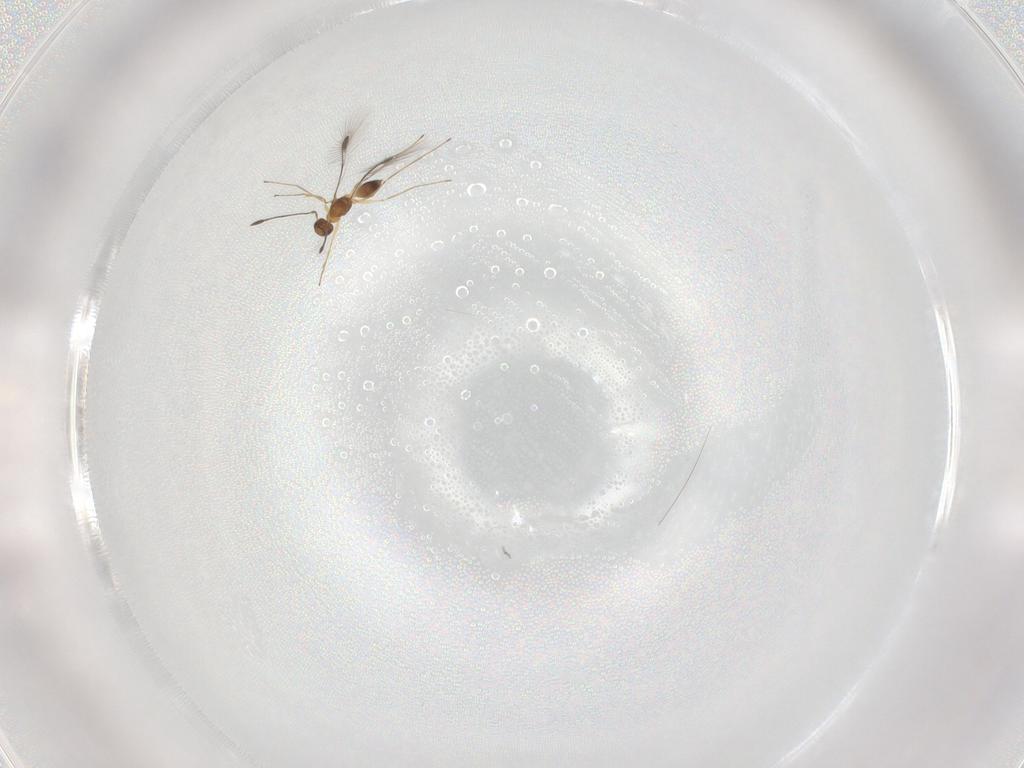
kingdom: Animalia
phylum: Arthropoda
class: Insecta
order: Hymenoptera
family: Mymaridae
